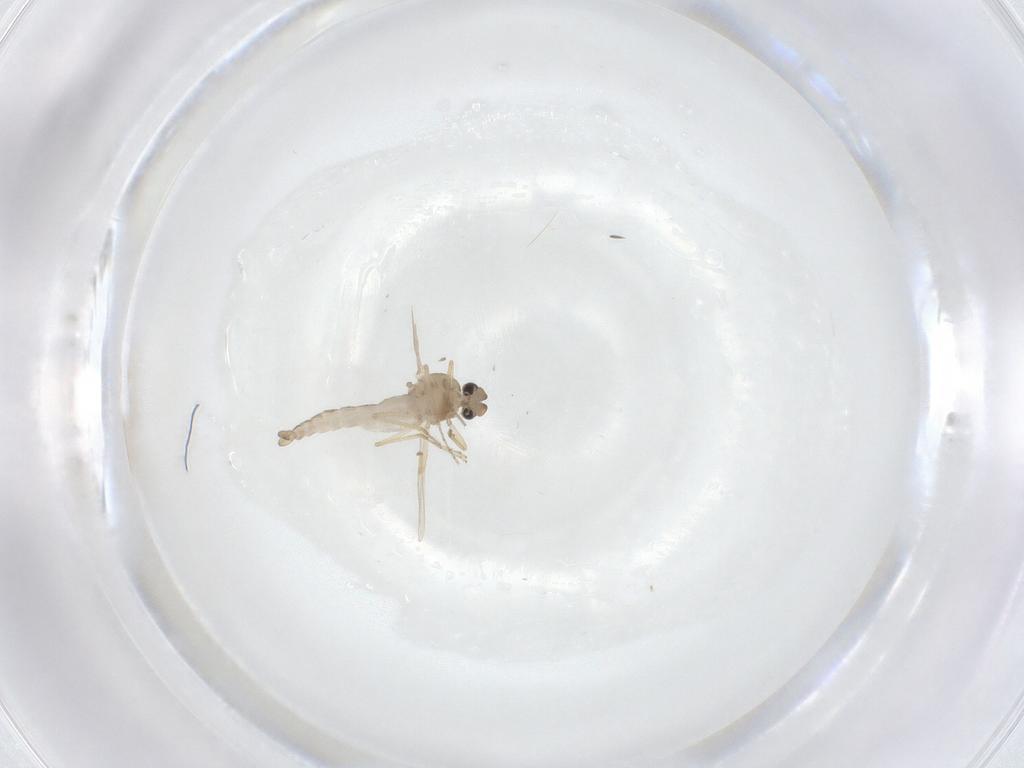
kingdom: Animalia
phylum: Arthropoda
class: Insecta
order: Diptera
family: Ceratopogonidae
